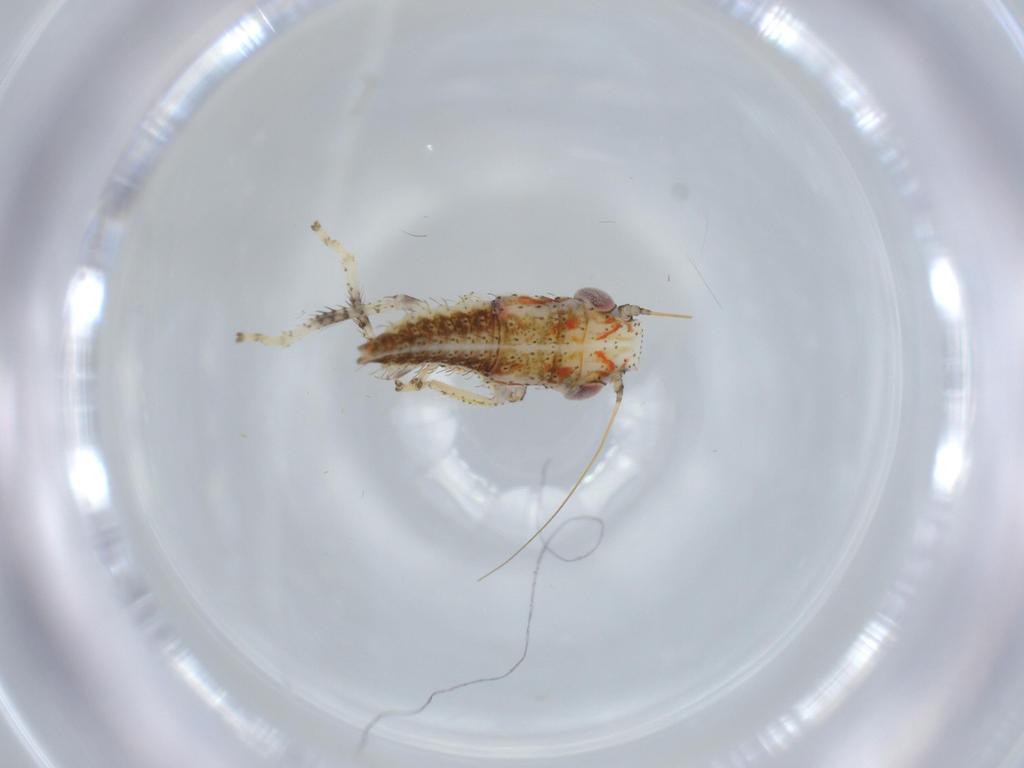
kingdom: Animalia
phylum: Arthropoda
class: Insecta
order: Hemiptera
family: Cicadellidae
